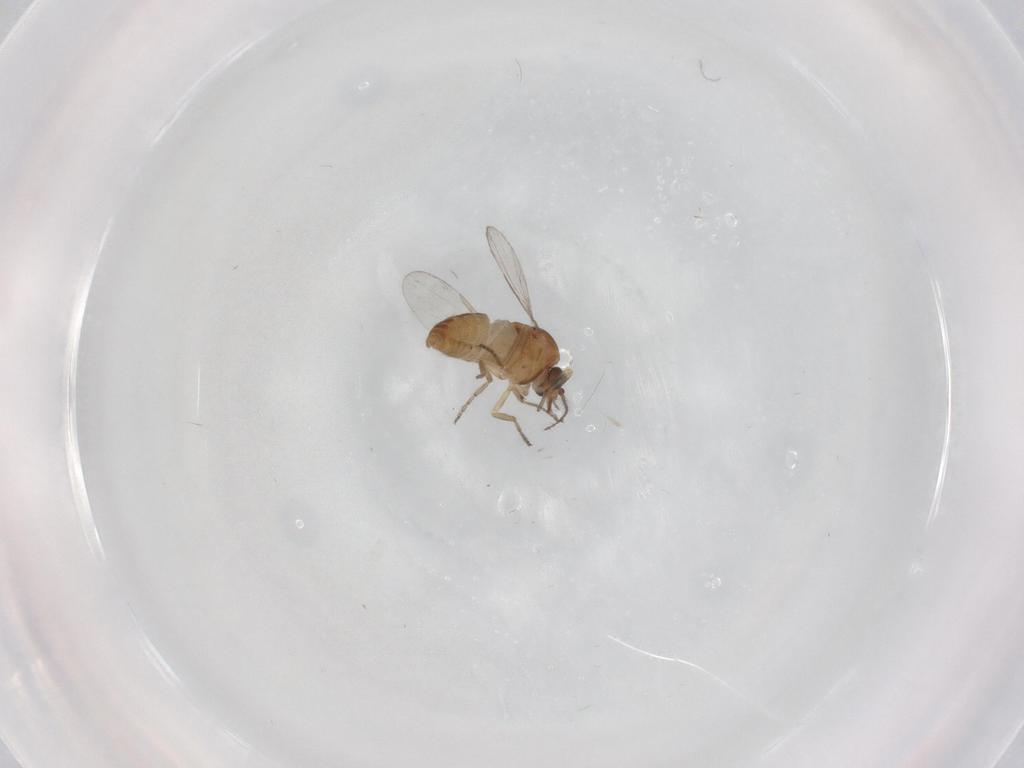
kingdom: Animalia
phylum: Arthropoda
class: Insecta
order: Diptera
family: Ceratopogonidae
